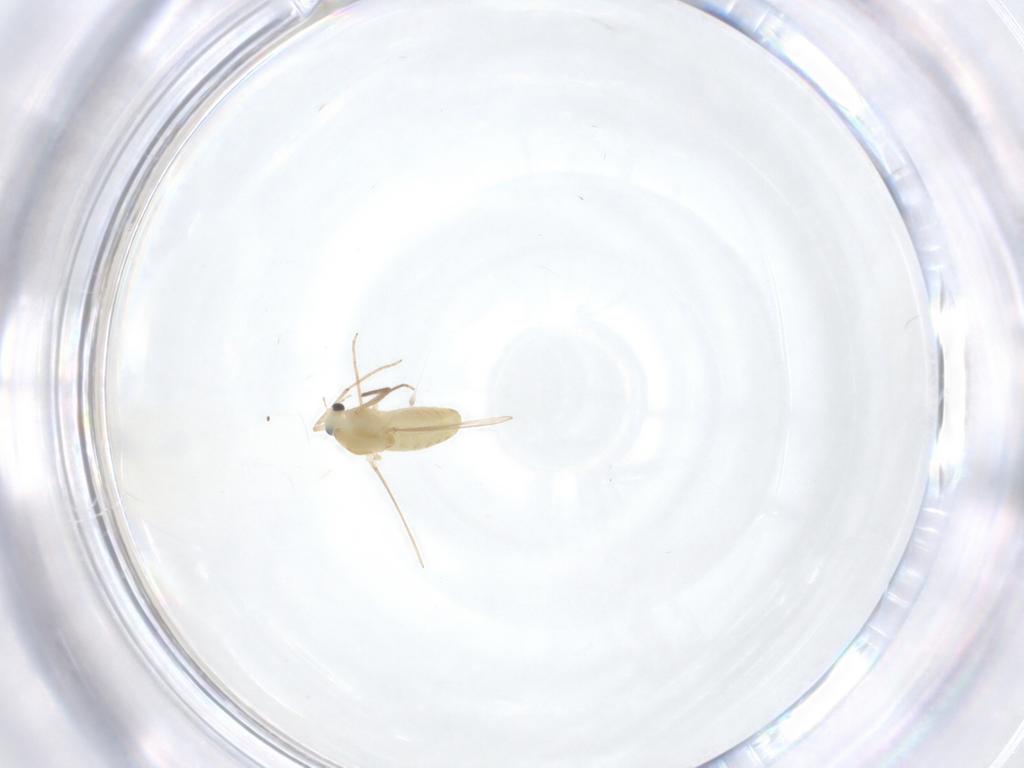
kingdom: Animalia
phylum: Arthropoda
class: Insecta
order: Diptera
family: Chironomidae
